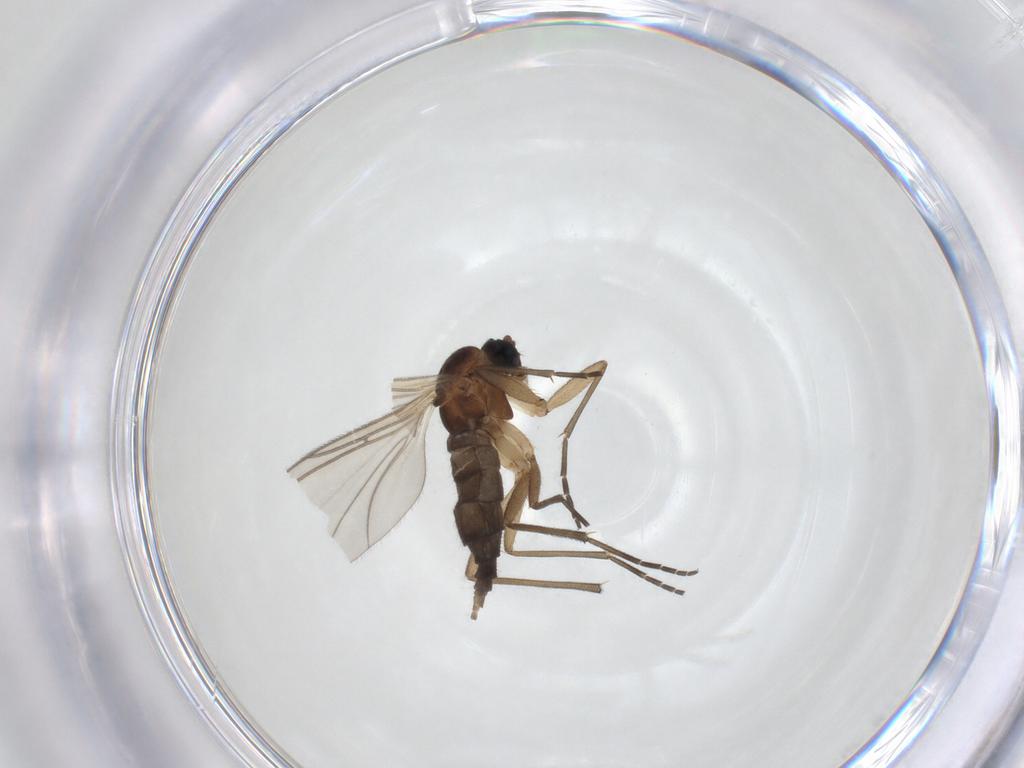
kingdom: Animalia
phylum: Arthropoda
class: Insecta
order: Diptera
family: Sciaridae
